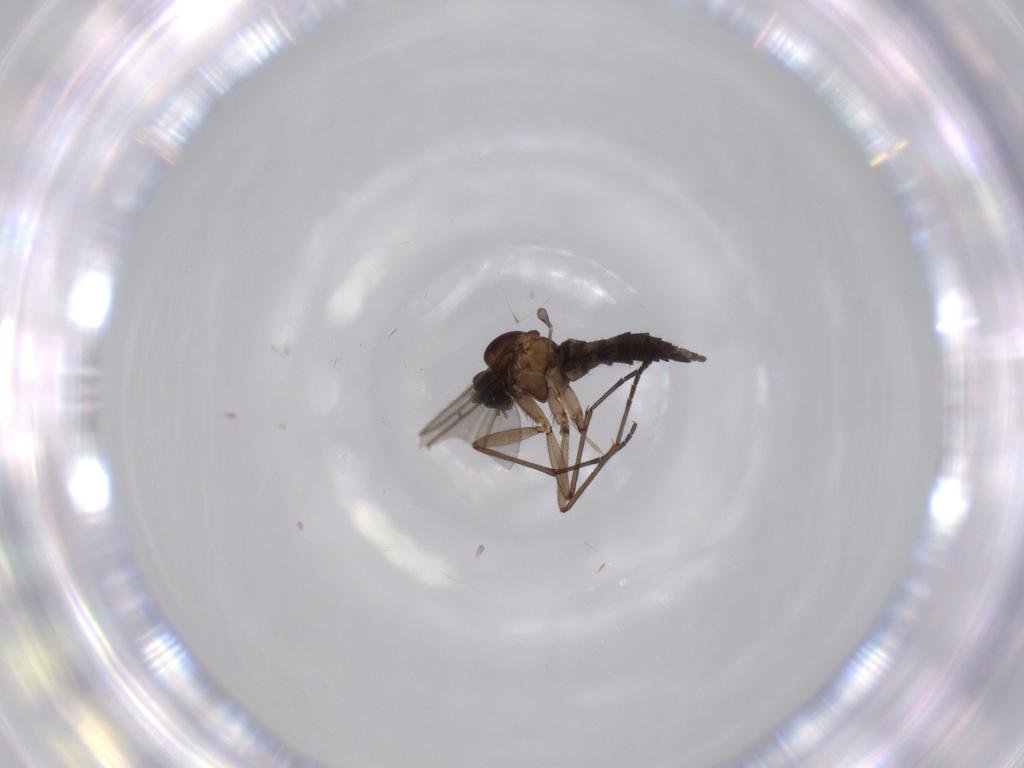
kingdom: Animalia
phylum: Arthropoda
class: Insecta
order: Diptera
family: Sciaridae
